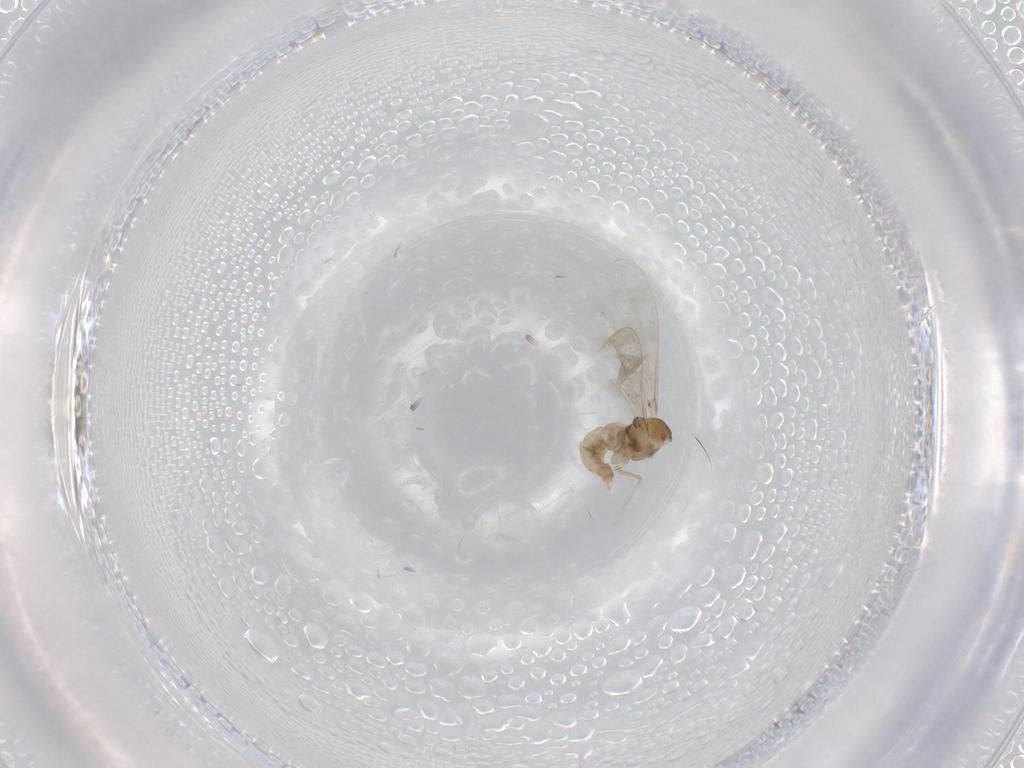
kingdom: Animalia
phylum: Arthropoda
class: Insecta
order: Diptera
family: Cecidomyiidae
